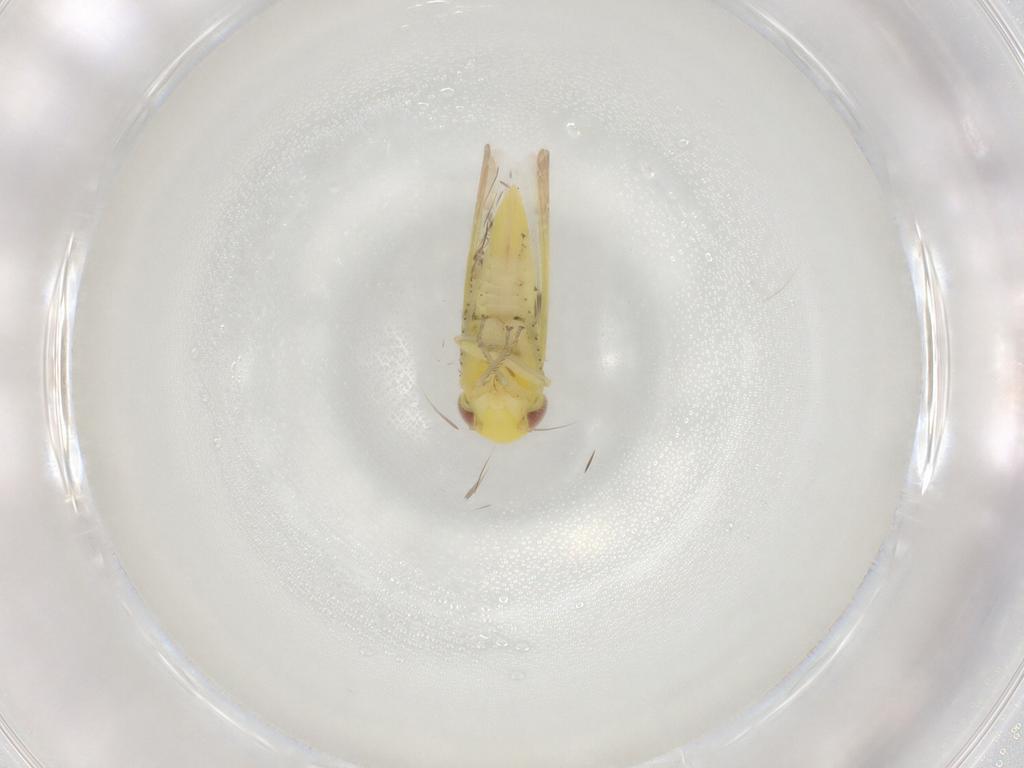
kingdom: Animalia
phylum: Arthropoda
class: Insecta
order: Hemiptera
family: Cicadellidae
